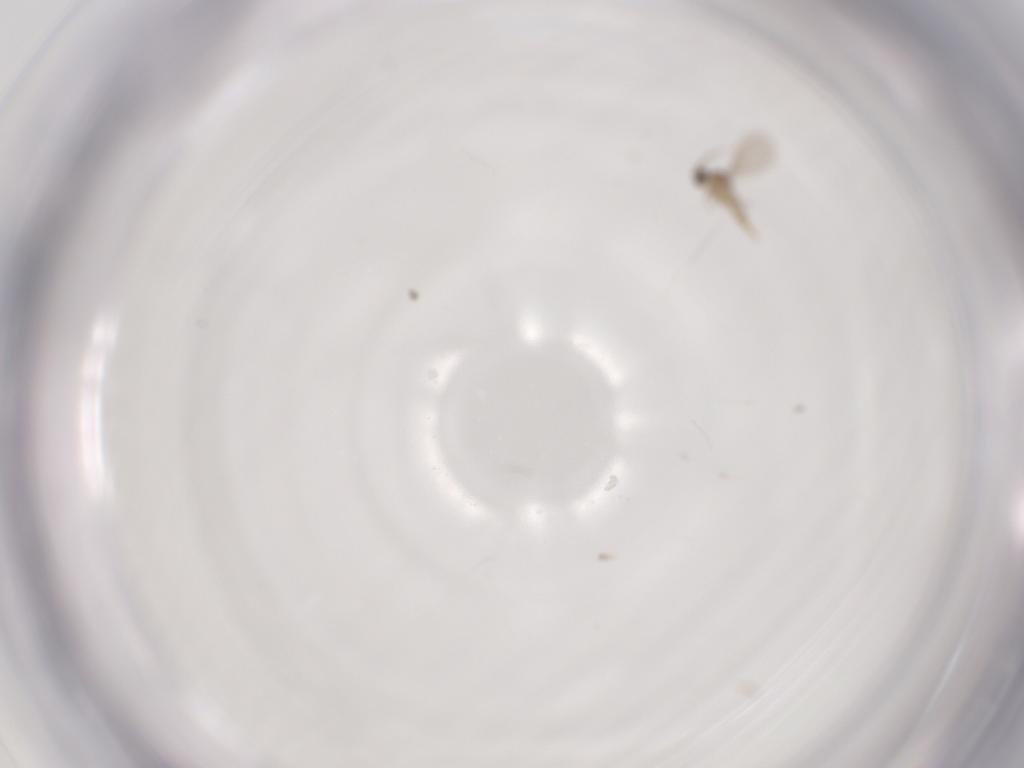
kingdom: Animalia
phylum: Arthropoda
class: Insecta
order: Diptera
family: Cecidomyiidae
